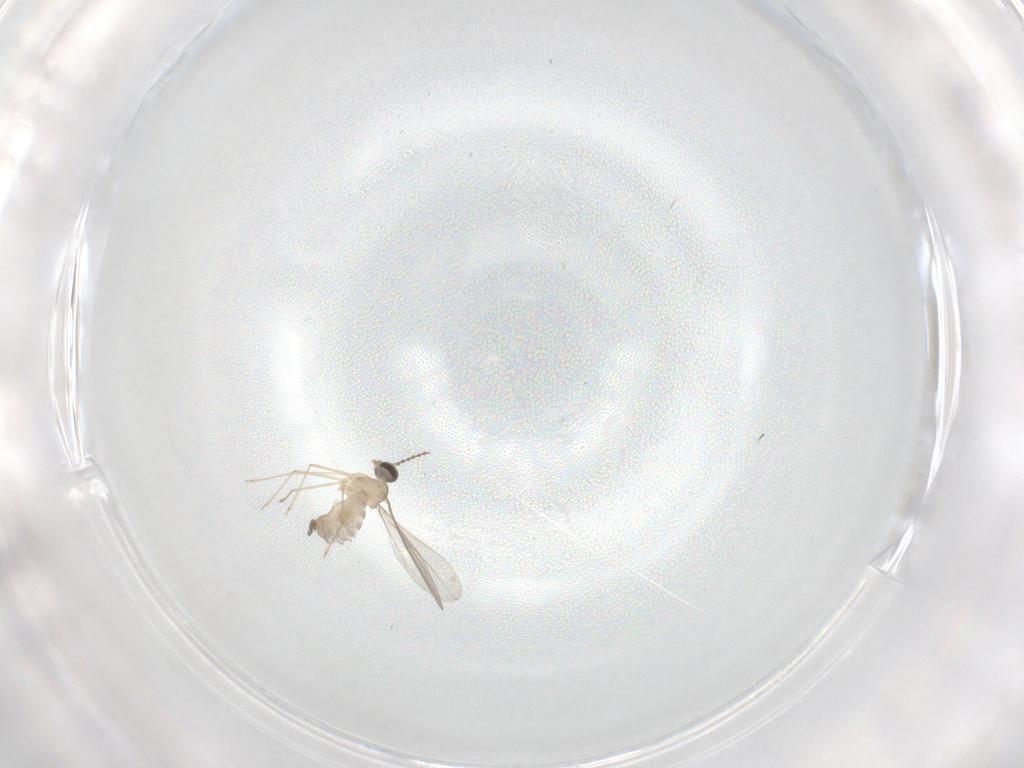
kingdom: Animalia
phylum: Arthropoda
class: Insecta
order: Diptera
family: Cecidomyiidae
